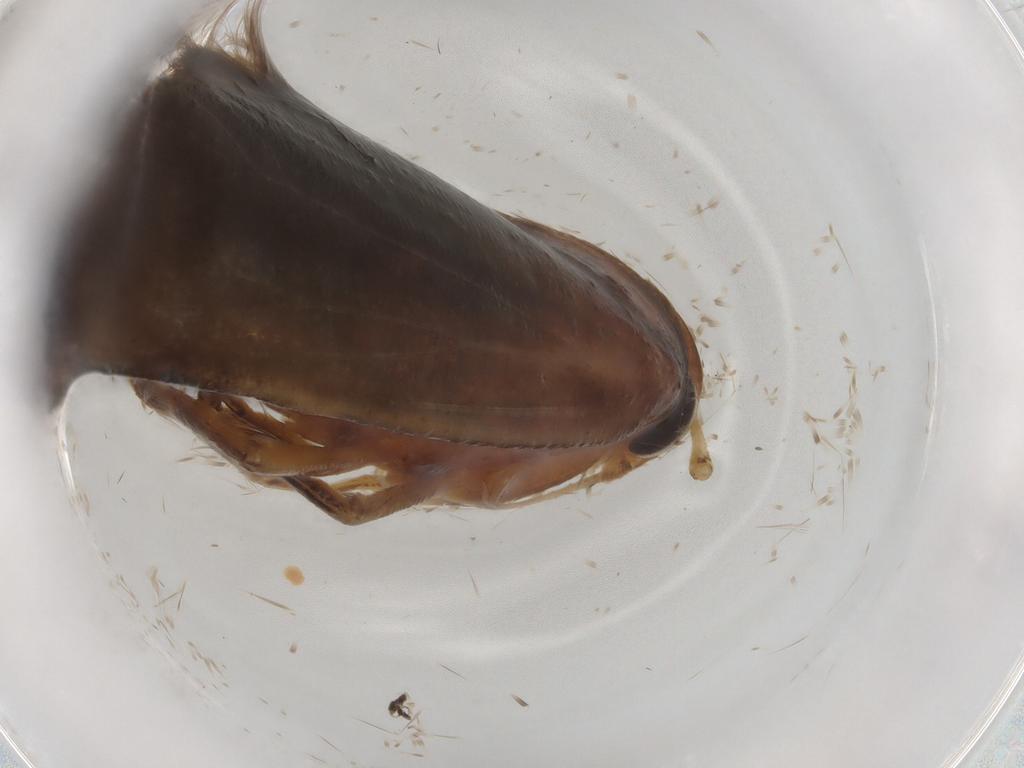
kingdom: Animalia
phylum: Arthropoda
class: Insecta
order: Lepidoptera
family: Gelechiidae
